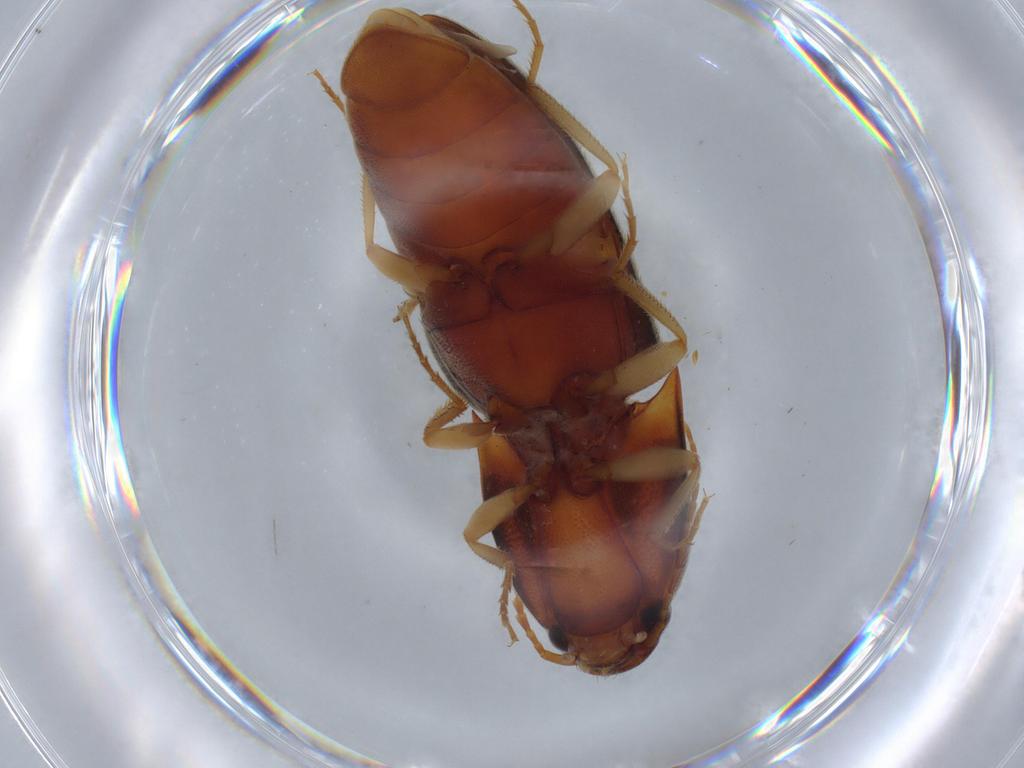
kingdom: Animalia
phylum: Arthropoda
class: Insecta
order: Coleoptera
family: Elateridae
